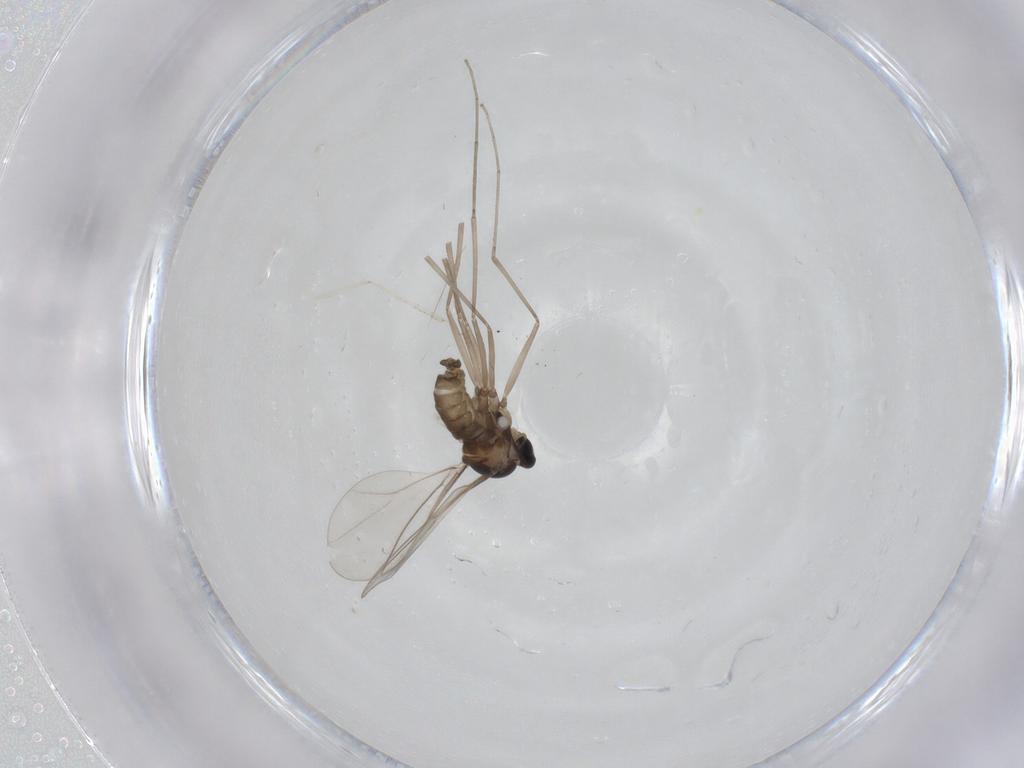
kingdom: Animalia
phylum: Arthropoda
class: Insecta
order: Diptera
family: Cecidomyiidae
